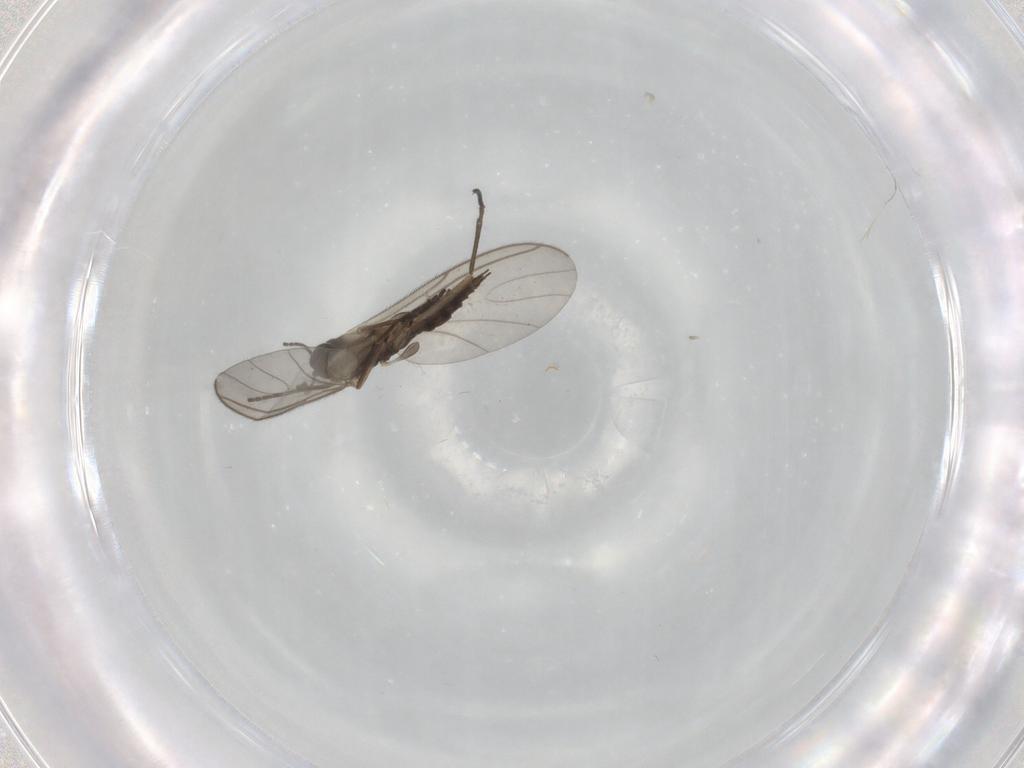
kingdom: Animalia
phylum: Arthropoda
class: Insecta
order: Diptera
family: Sciaridae
